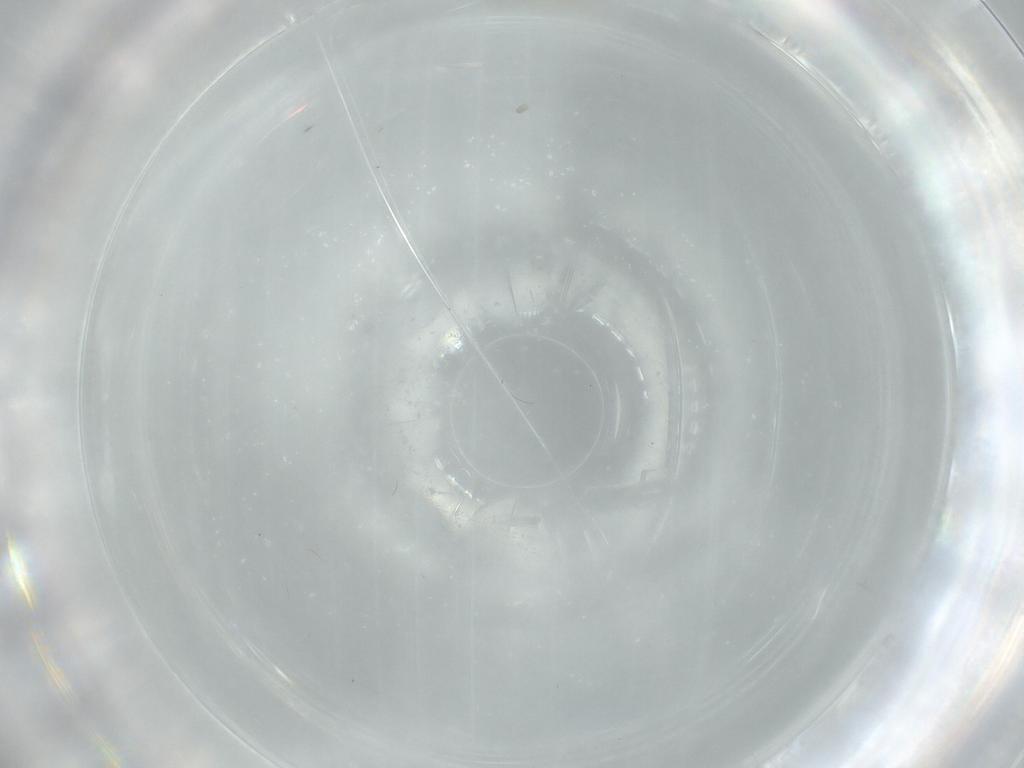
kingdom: Animalia
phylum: Arthropoda
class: Insecta
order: Diptera
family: Cecidomyiidae
